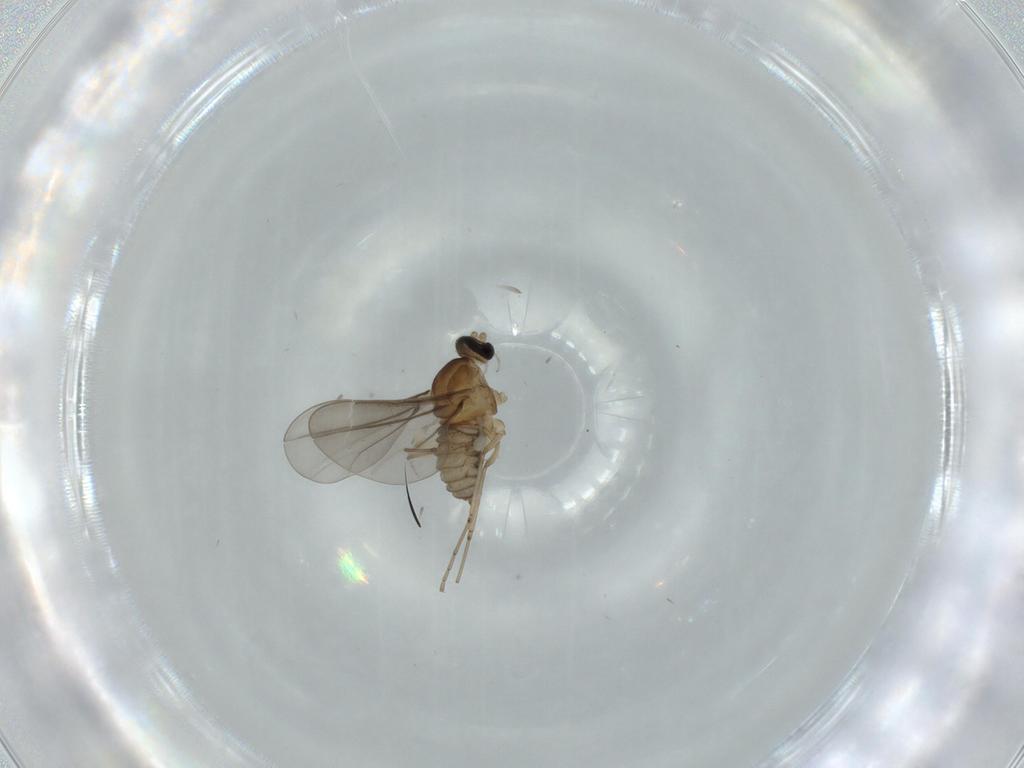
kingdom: Animalia
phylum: Arthropoda
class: Insecta
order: Diptera
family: Cecidomyiidae
